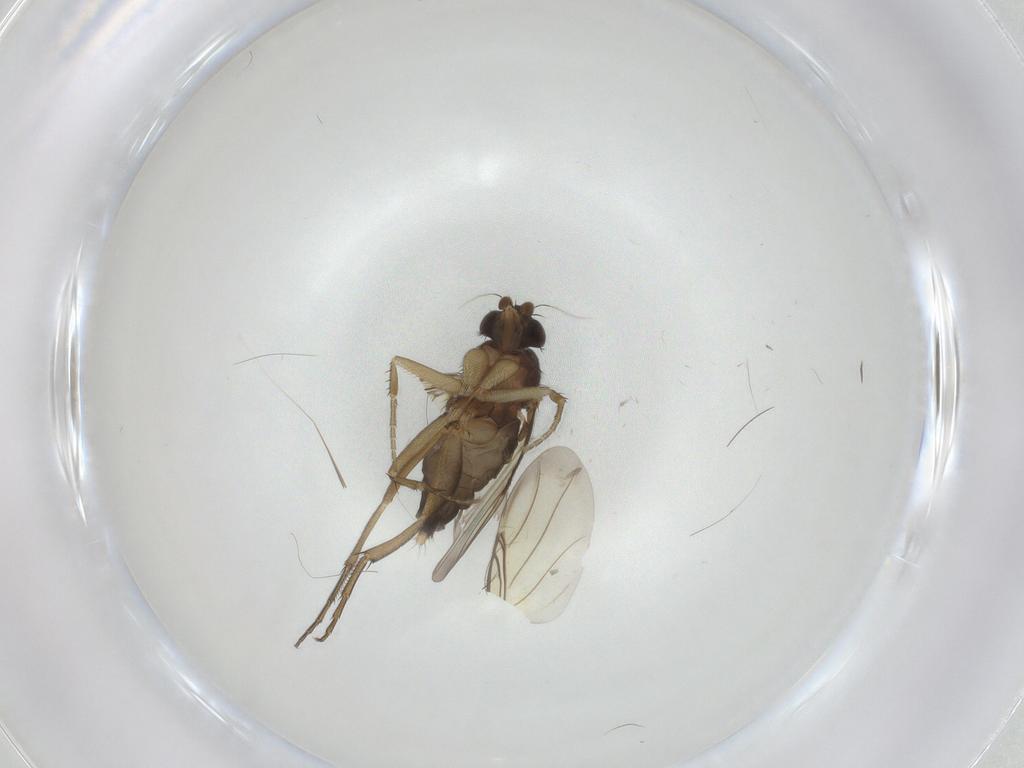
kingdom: Animalia
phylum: Arthropoda
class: Insecta
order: Diptera
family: Phoridae
